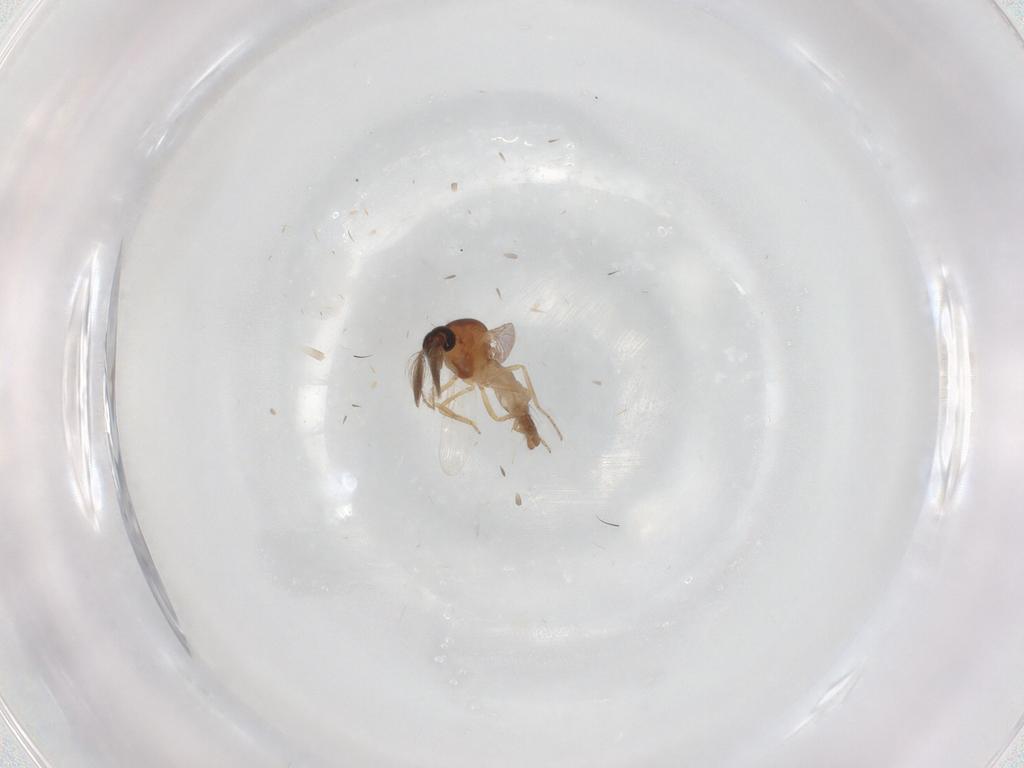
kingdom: Animalia
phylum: Arthropoda
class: Insecta
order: Diptera
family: Ceratopogonidae
